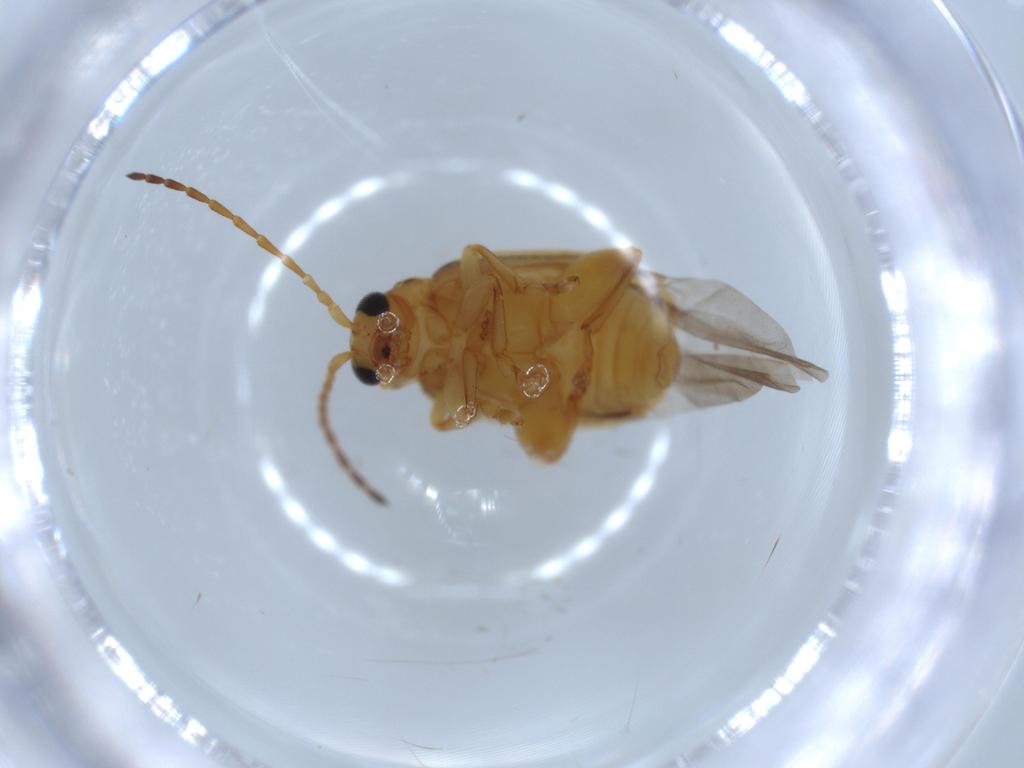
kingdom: Animalia
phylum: Arthropoda
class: Insecta
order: Coleoptera
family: Chrysomelidae
